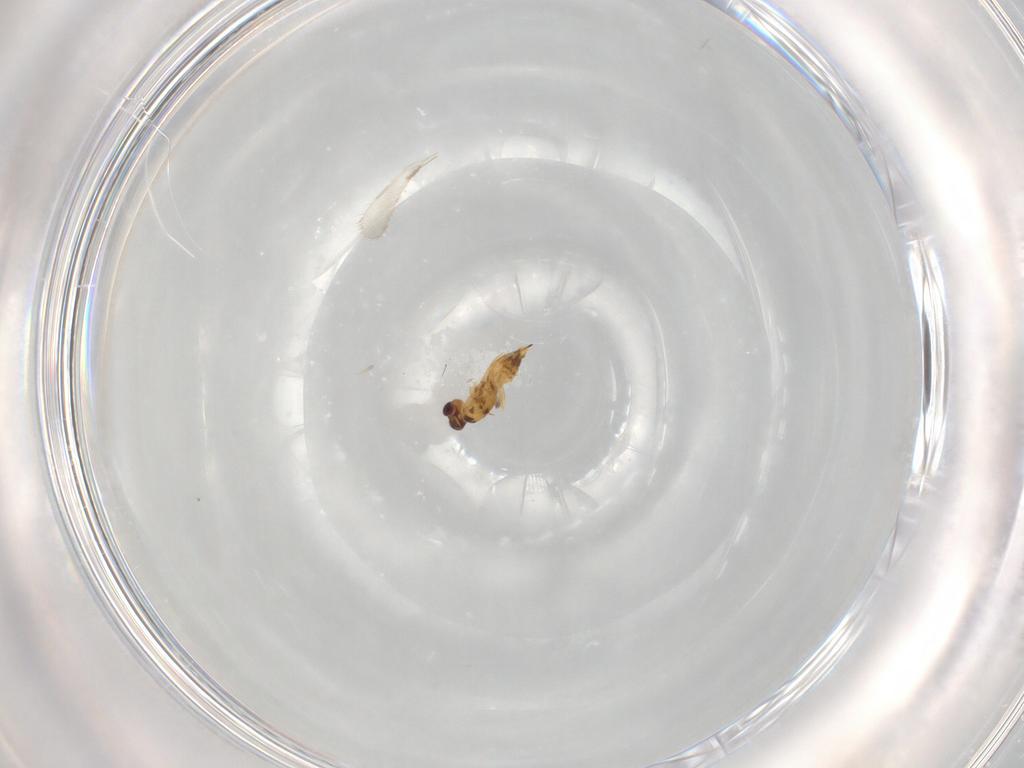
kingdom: Animalia
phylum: Arthropoda
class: Insecta
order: Hymenoptera
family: Mymaridae
